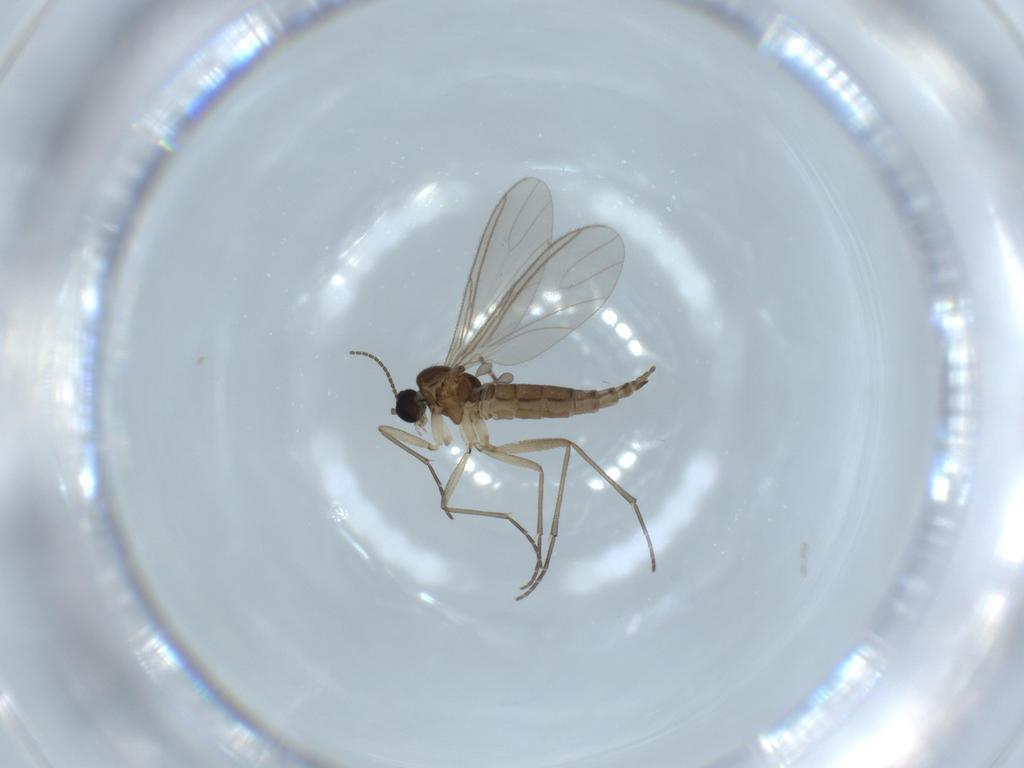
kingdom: Animalia
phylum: Arthropoda
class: Insecta
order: Diptera
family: Phoridae
